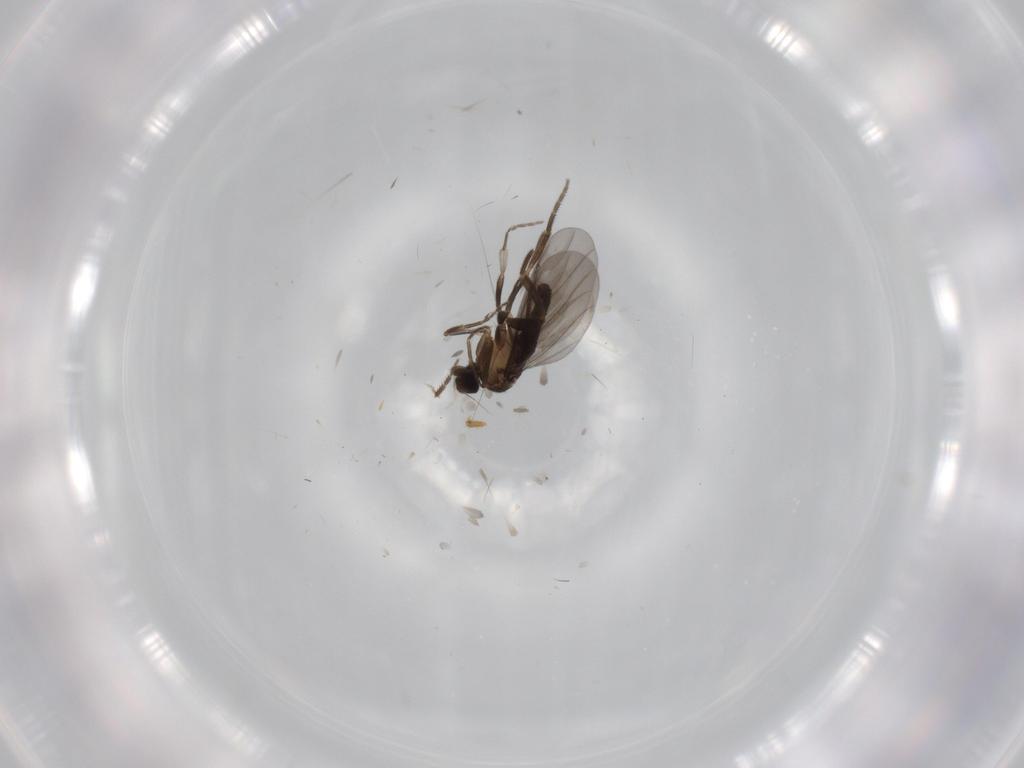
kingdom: Animalia
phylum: Arthropoda
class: Insecta
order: Diptera
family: Phoridae
